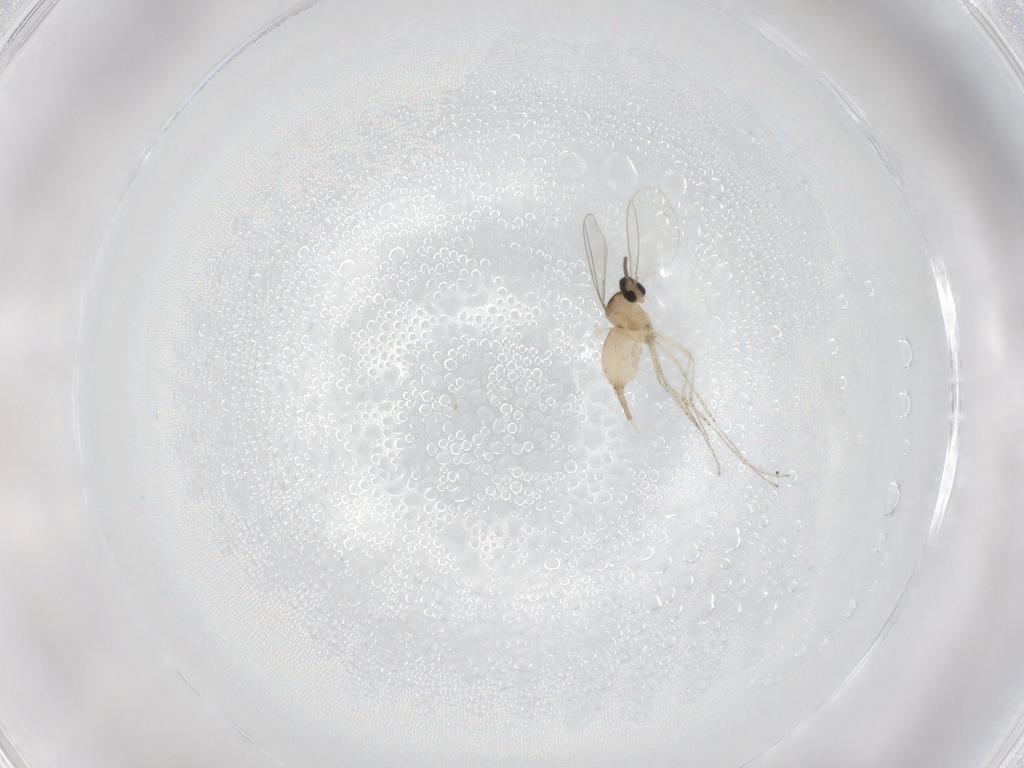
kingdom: Animalia
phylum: Arthropoda
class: Insecta
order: Diptera
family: Cecidomyiidae
